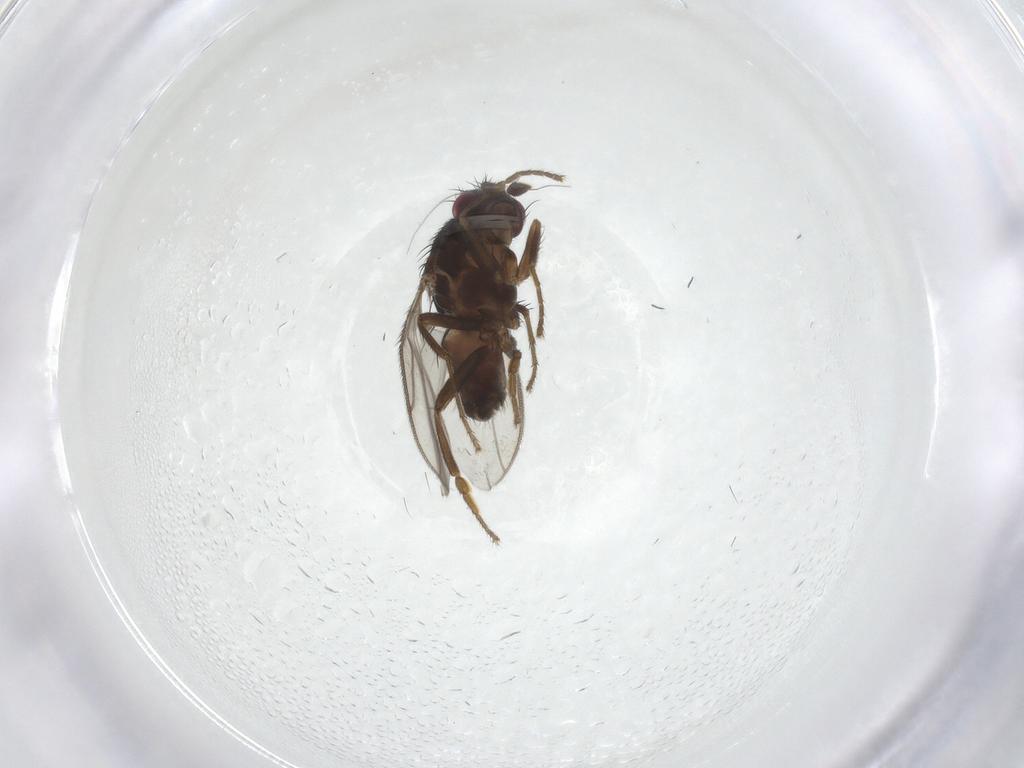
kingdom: Animalia
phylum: Arthropoda
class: Insecta
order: Diptera
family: Sphaeroceridae
